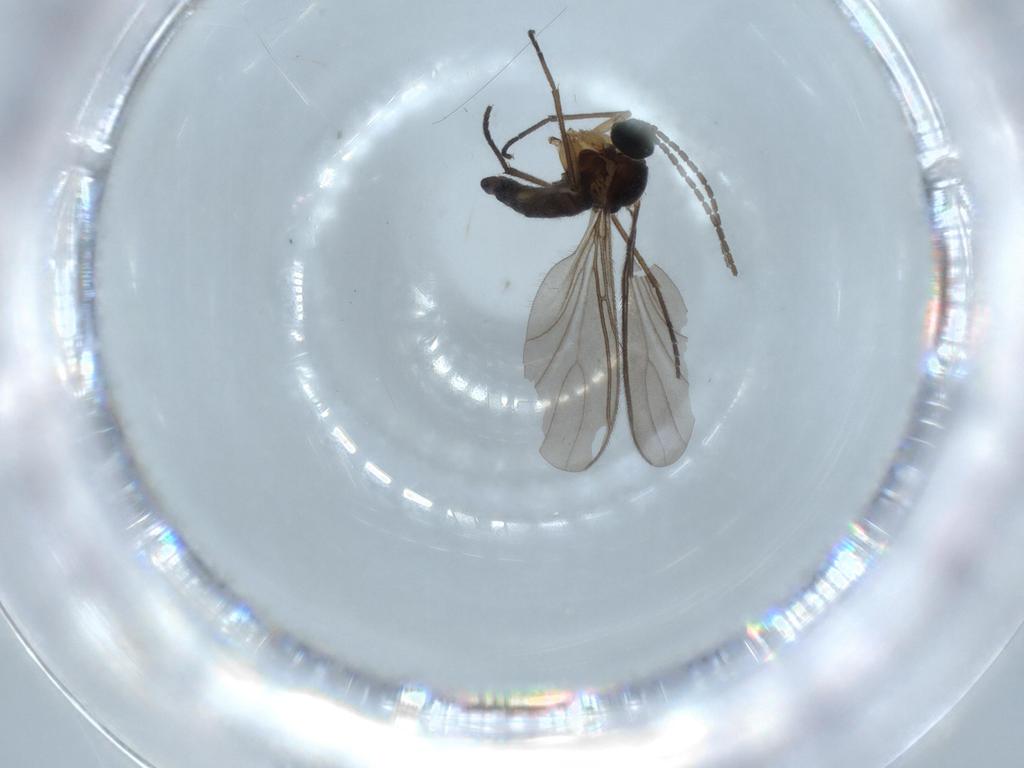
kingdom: Animalia
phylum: Arthropoda
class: Insecta
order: Diptera
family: Sciaridae
